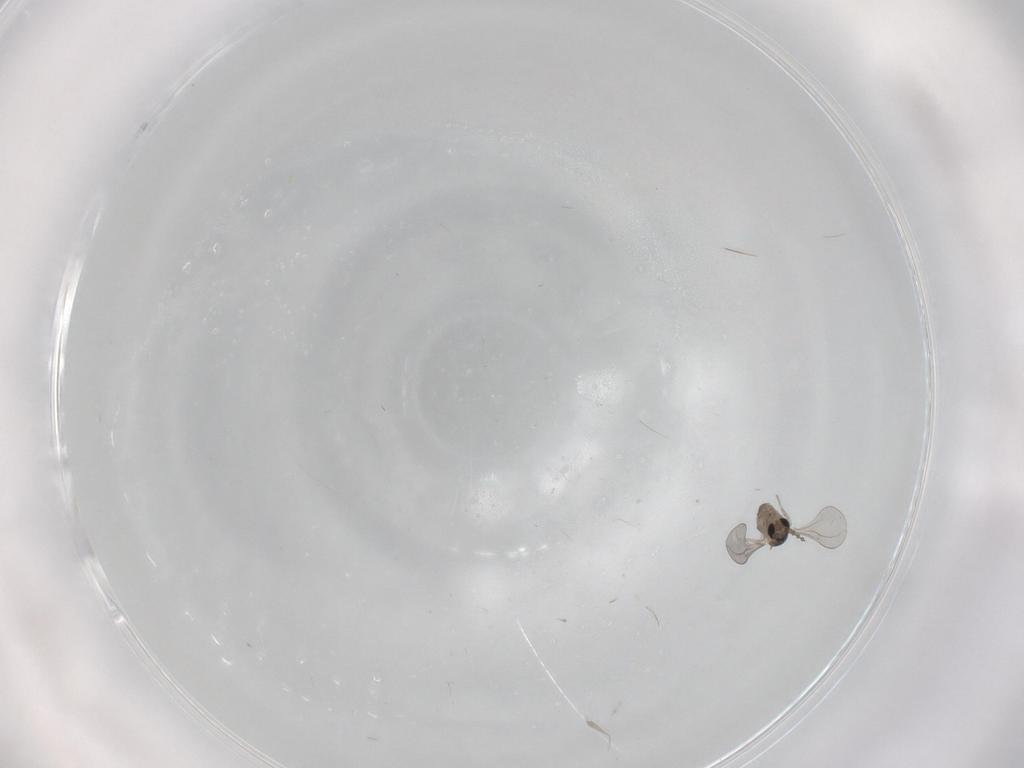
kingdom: Animalia
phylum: Arthropoda
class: Insecta
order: Diptera
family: Cecidomyiidae
